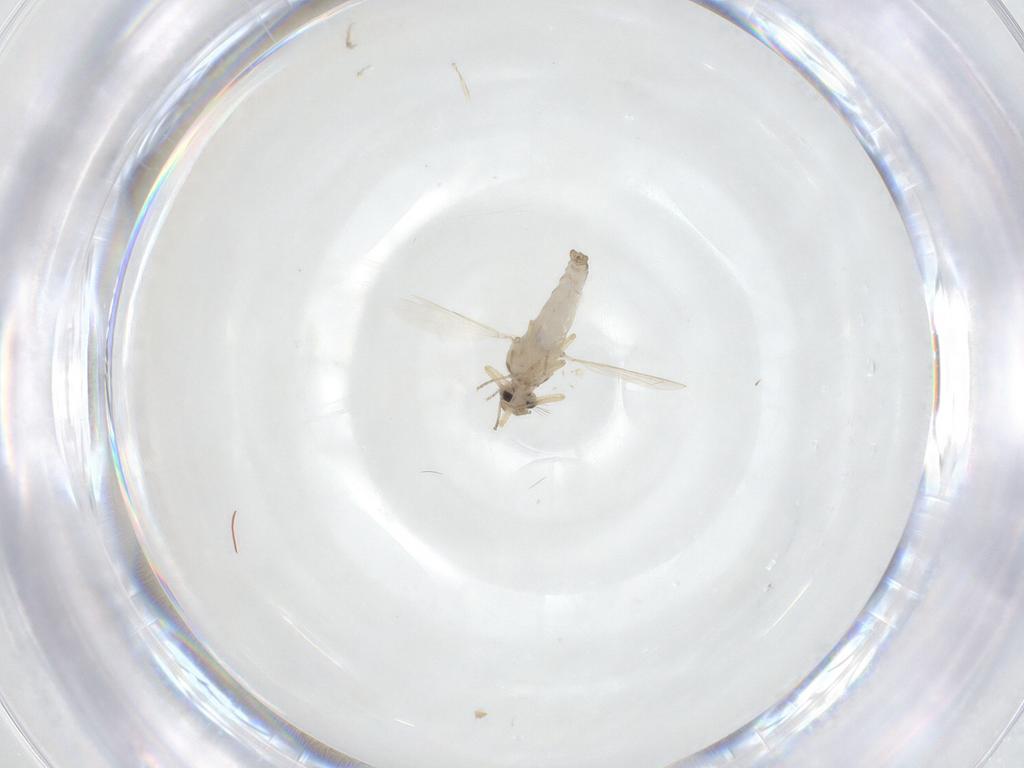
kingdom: Animalia
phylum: Arthropoda
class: Insecta
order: Diptera
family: Ceratopogonidae
